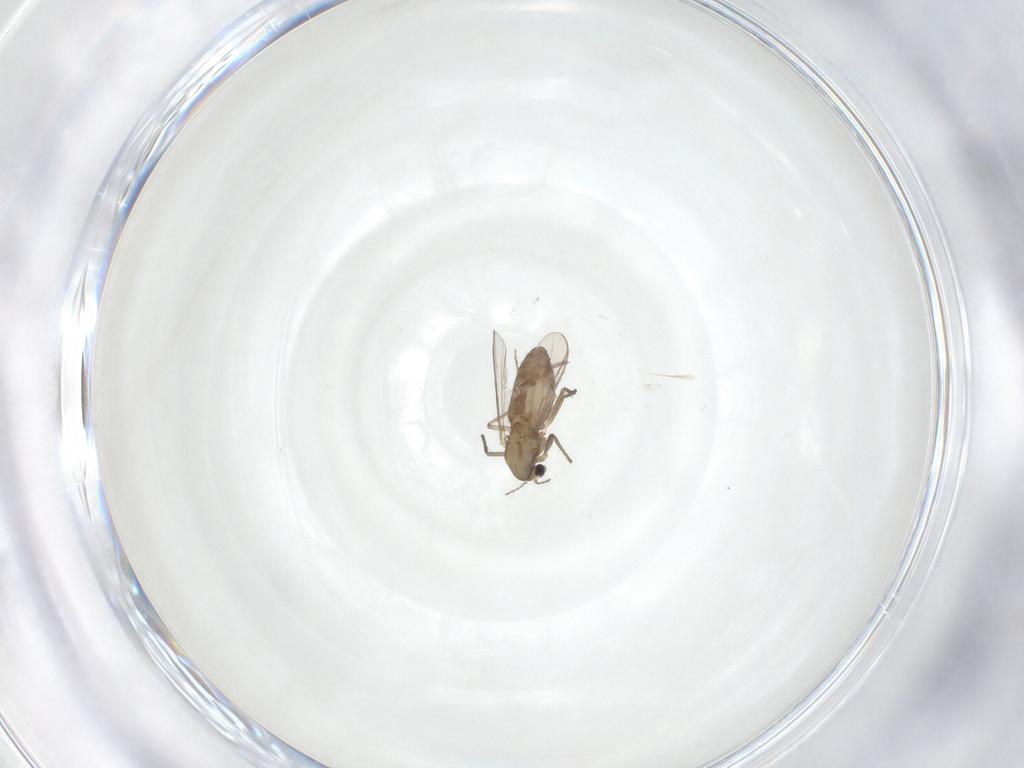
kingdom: Animalia
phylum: Arthropoda
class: Insecta
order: Diptera
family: Chironomidae
